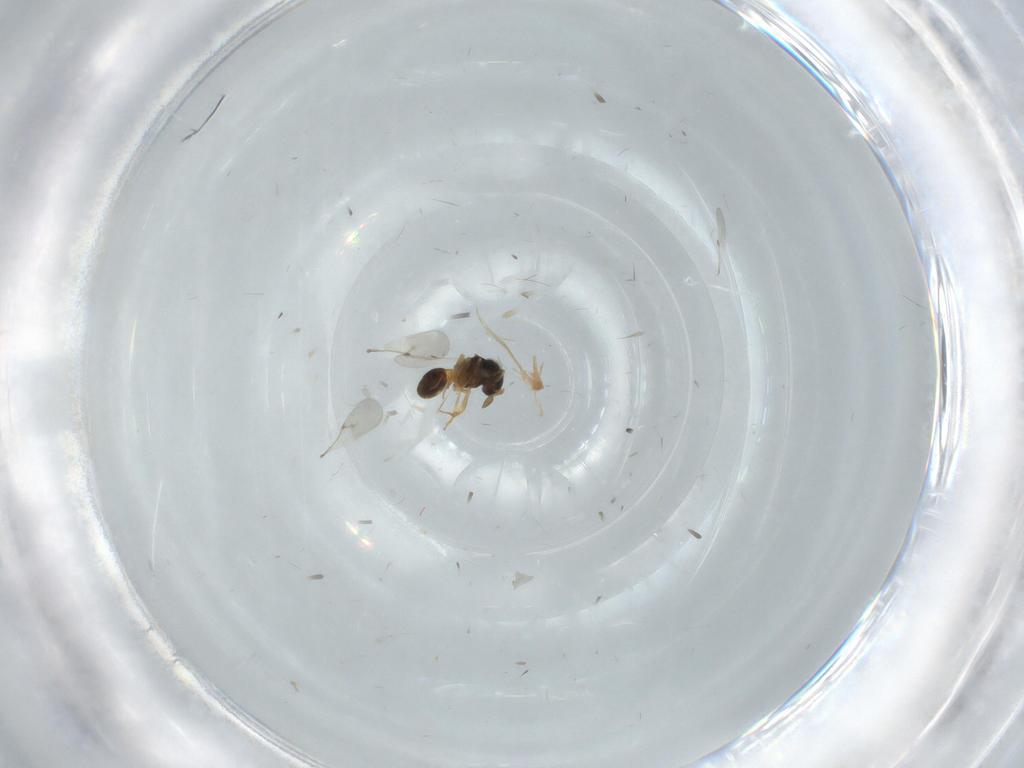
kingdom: Animalia
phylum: Arthropoda
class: Insecta
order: Hymenoptera
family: Scelionidae
